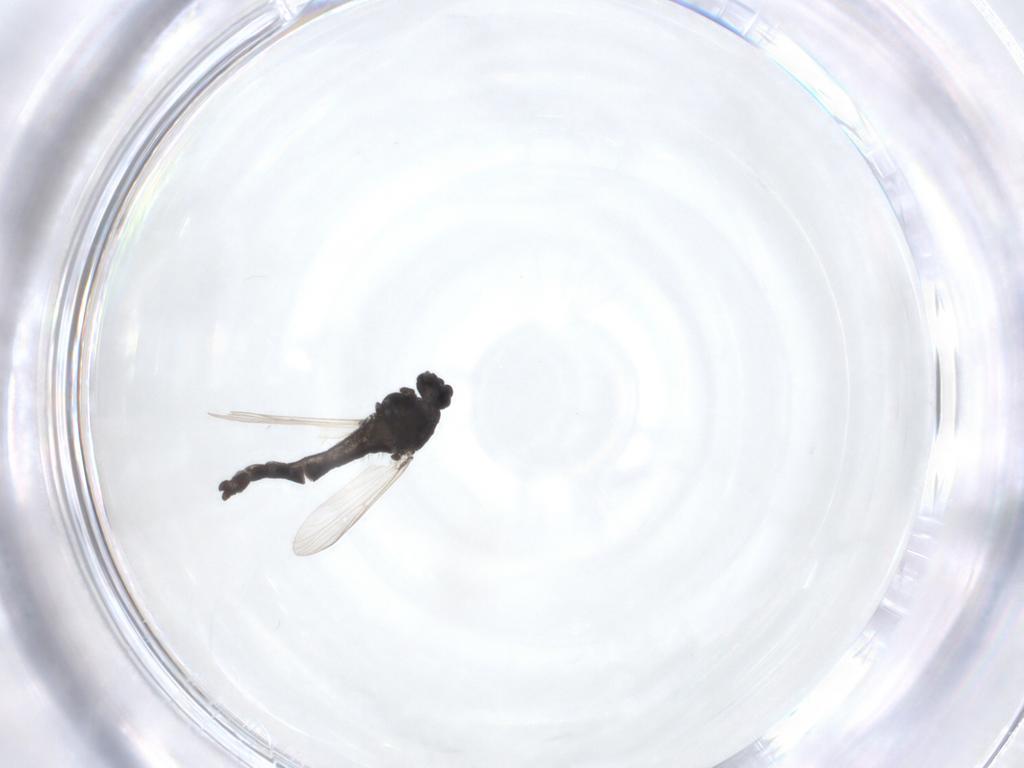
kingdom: Animalia
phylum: Arthropoda
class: Insecta
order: Diptera
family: Chironomidae
